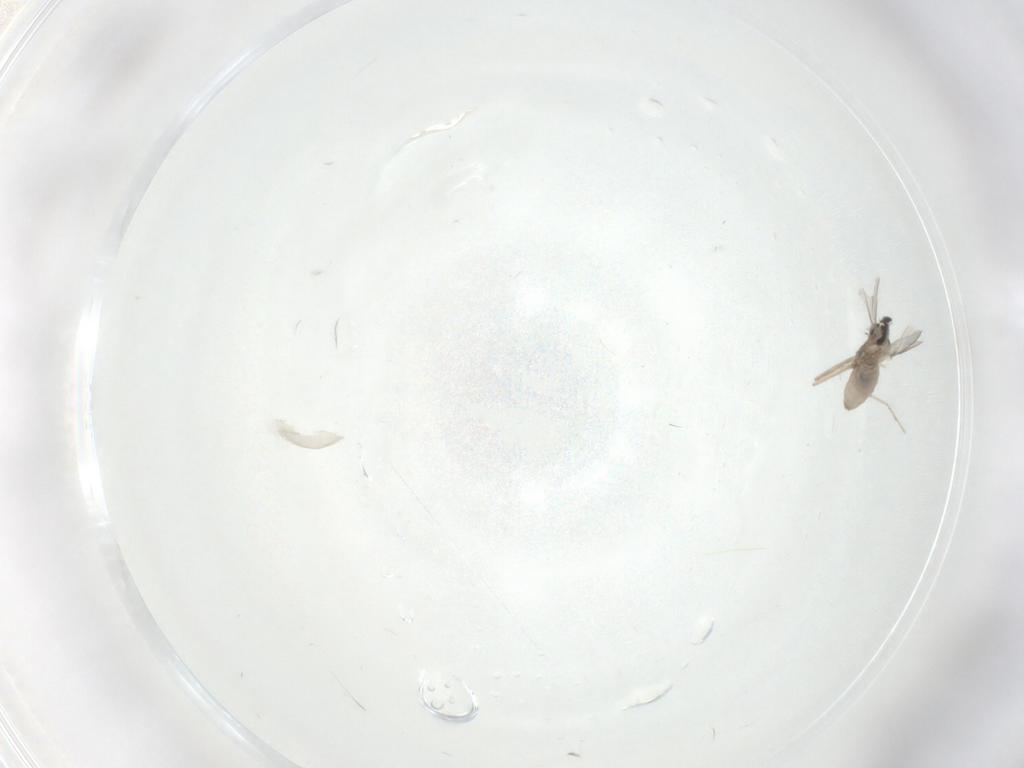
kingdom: Animalia
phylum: Arthropoda
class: Insecta
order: Diptera
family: Cecidomyiidae
